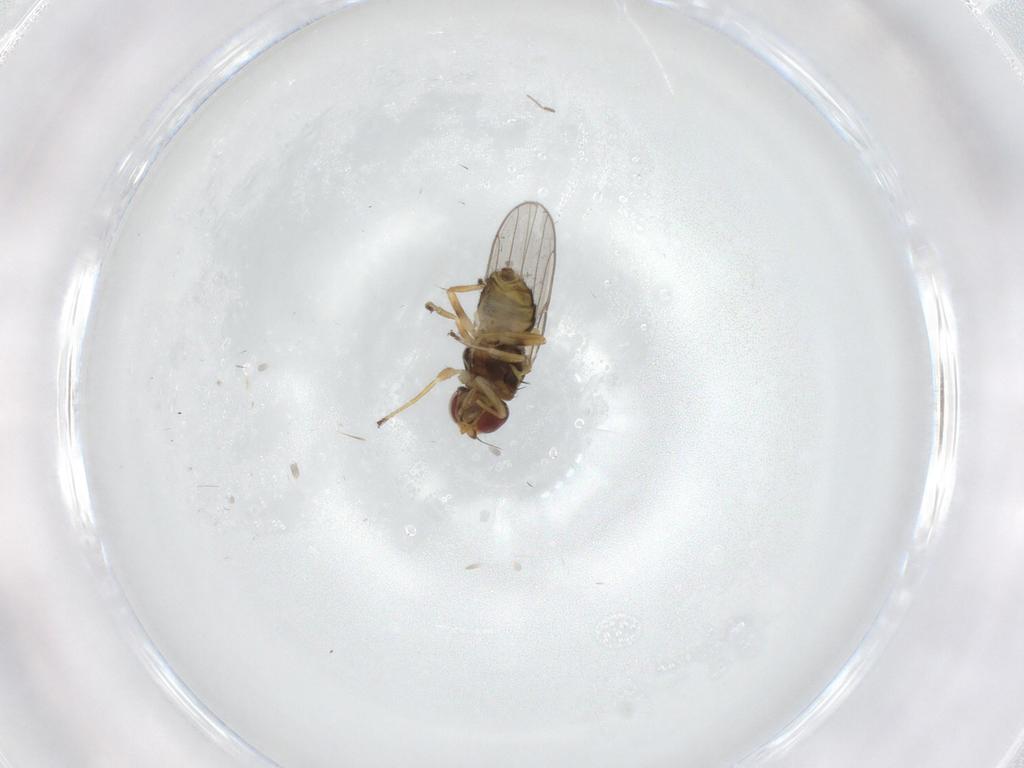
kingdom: Animalia
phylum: Arthropoda
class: Insecta
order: Diptera
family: Chloropidae
